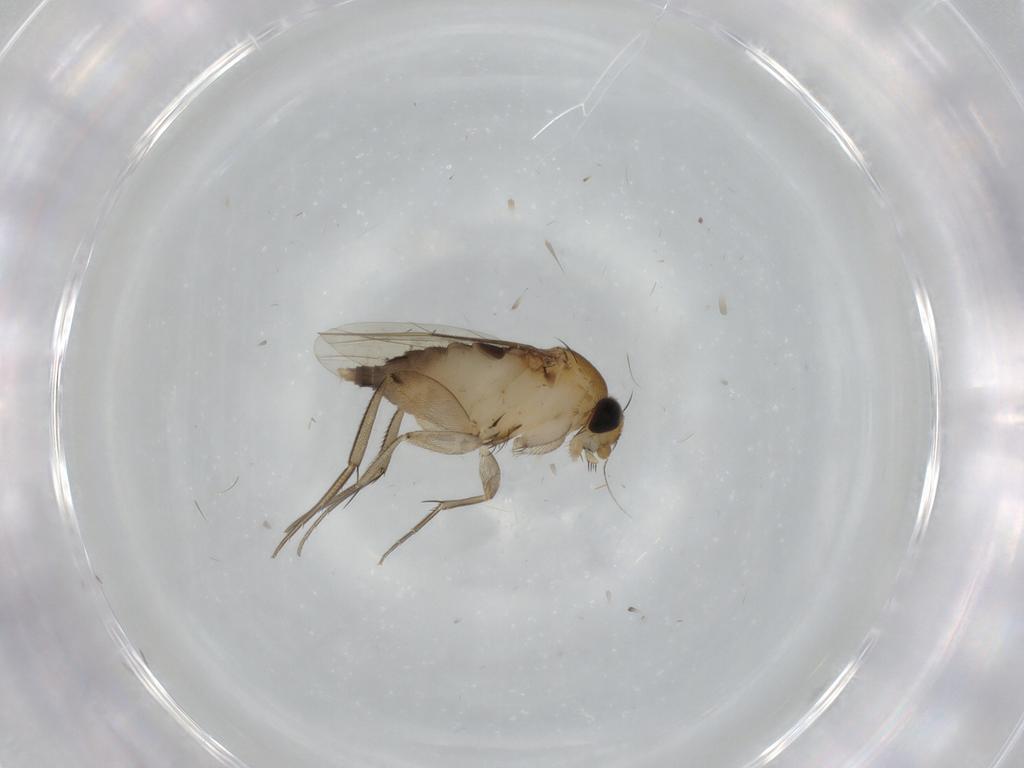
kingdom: Animalia
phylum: Arthropoda
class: Insecta
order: Diptera
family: Phoridae
